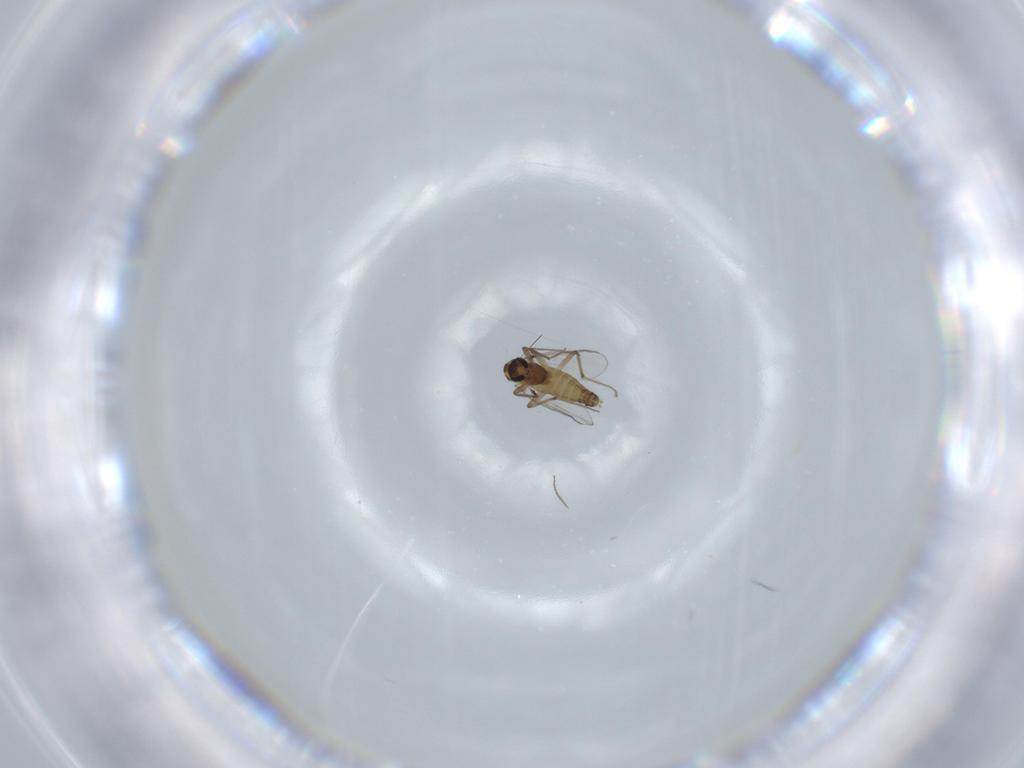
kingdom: Animalia
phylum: Arthropoda
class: Insecta
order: Diptera
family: Chironomidae
